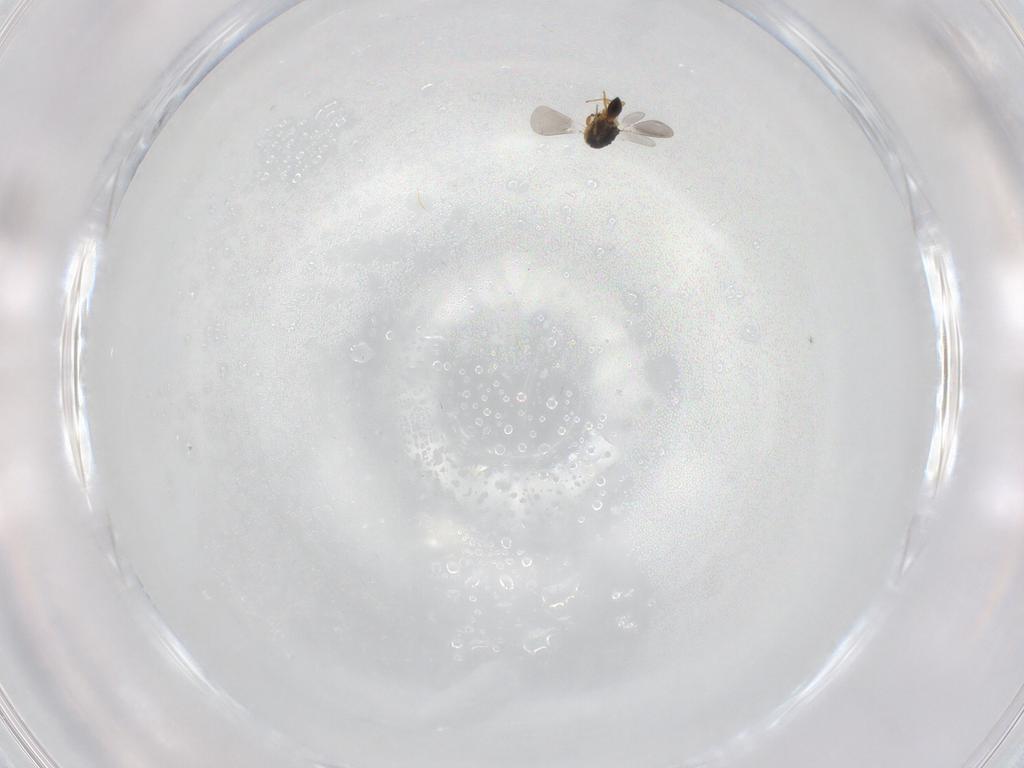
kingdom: Animalia
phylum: Arthropoda
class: Insecta
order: Hymenoptera
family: Platygastridae
